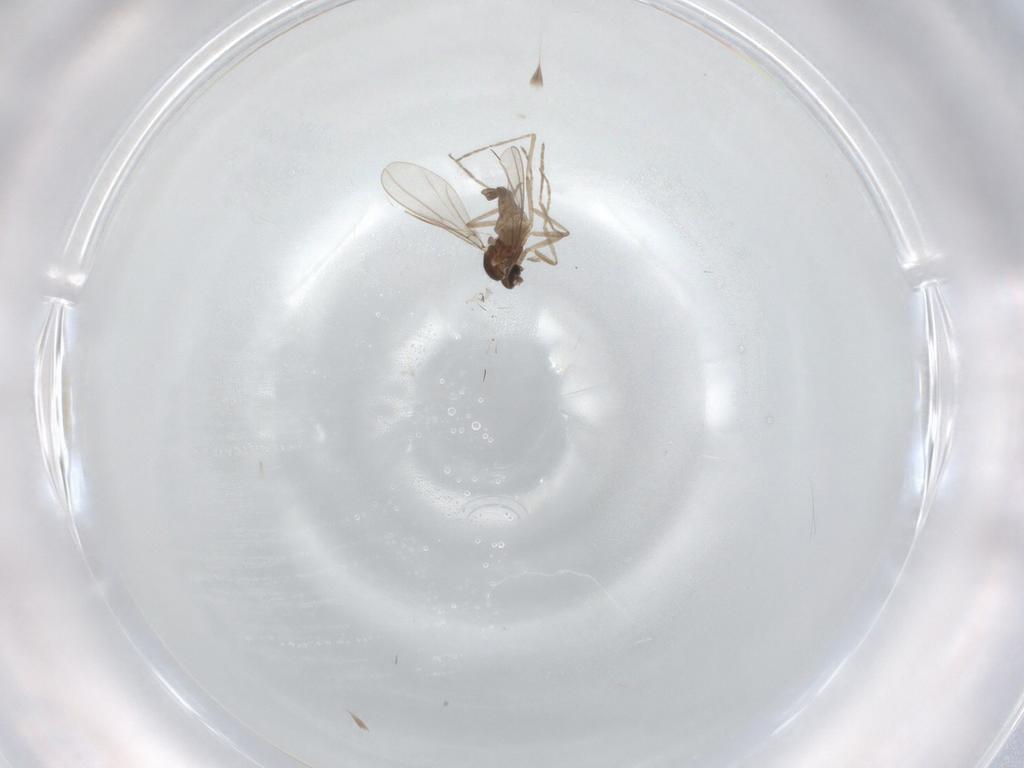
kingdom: Animalia
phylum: Arthropoda
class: Insecta
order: Diptera
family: Cecidomyiidae
